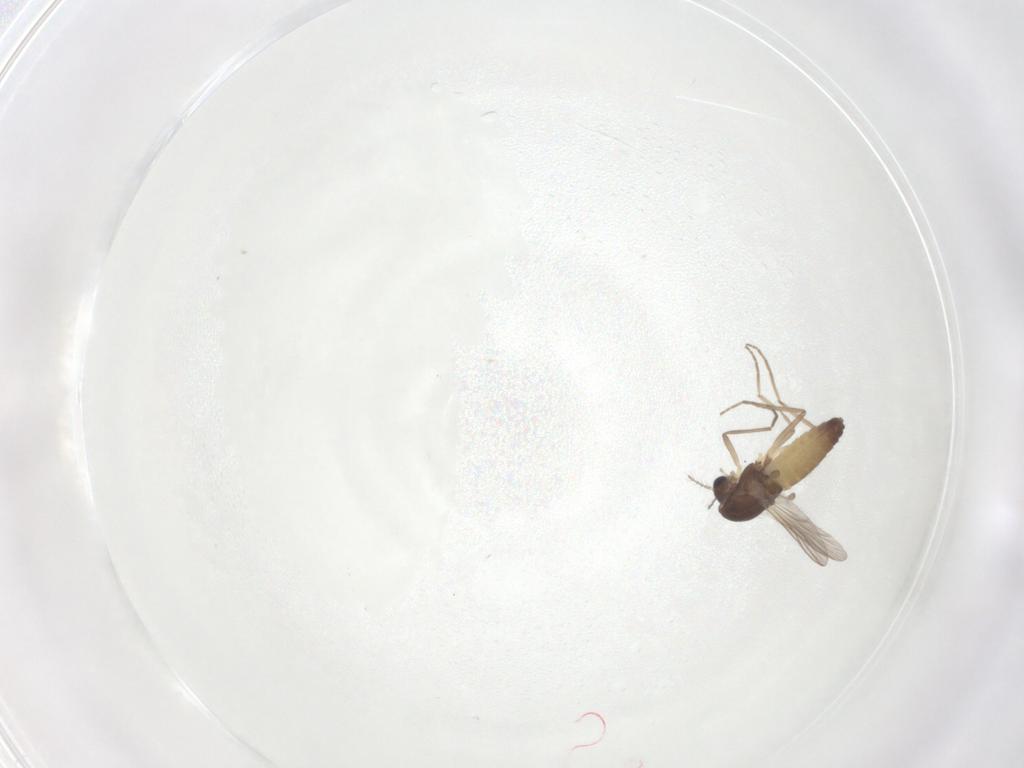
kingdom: Animalia
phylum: Arthropoda
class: Insecta
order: Diptera
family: Chironomidae
